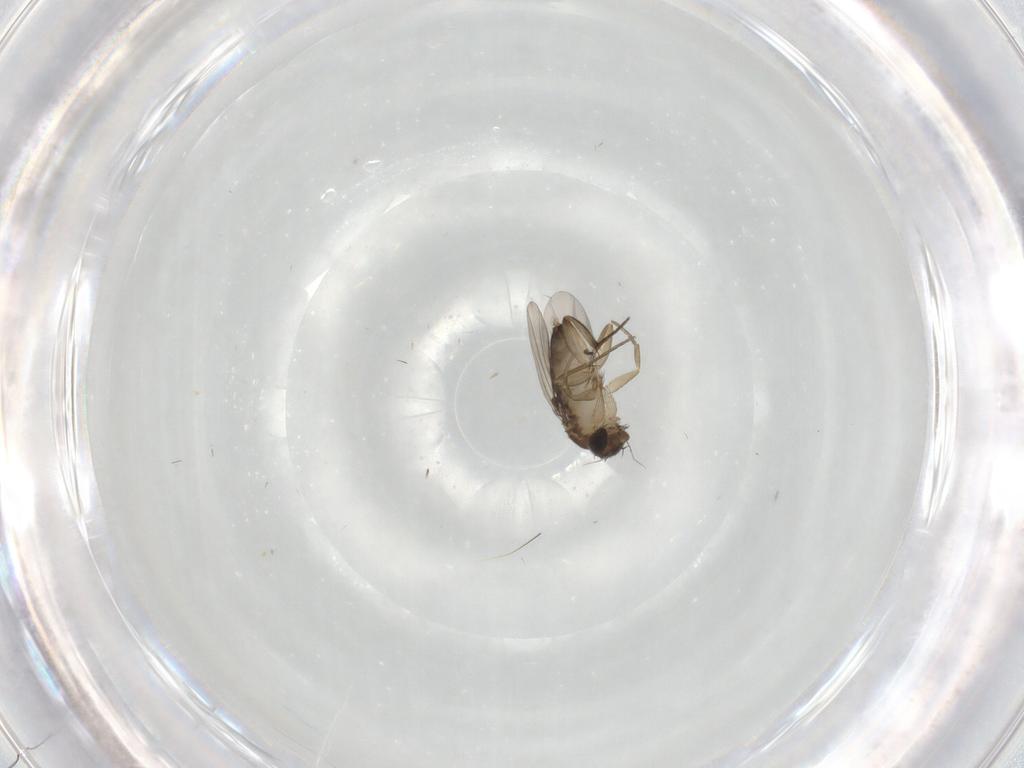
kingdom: Animalia
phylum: Arthropoda
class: Insecta
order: Diptera
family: Phoridae
